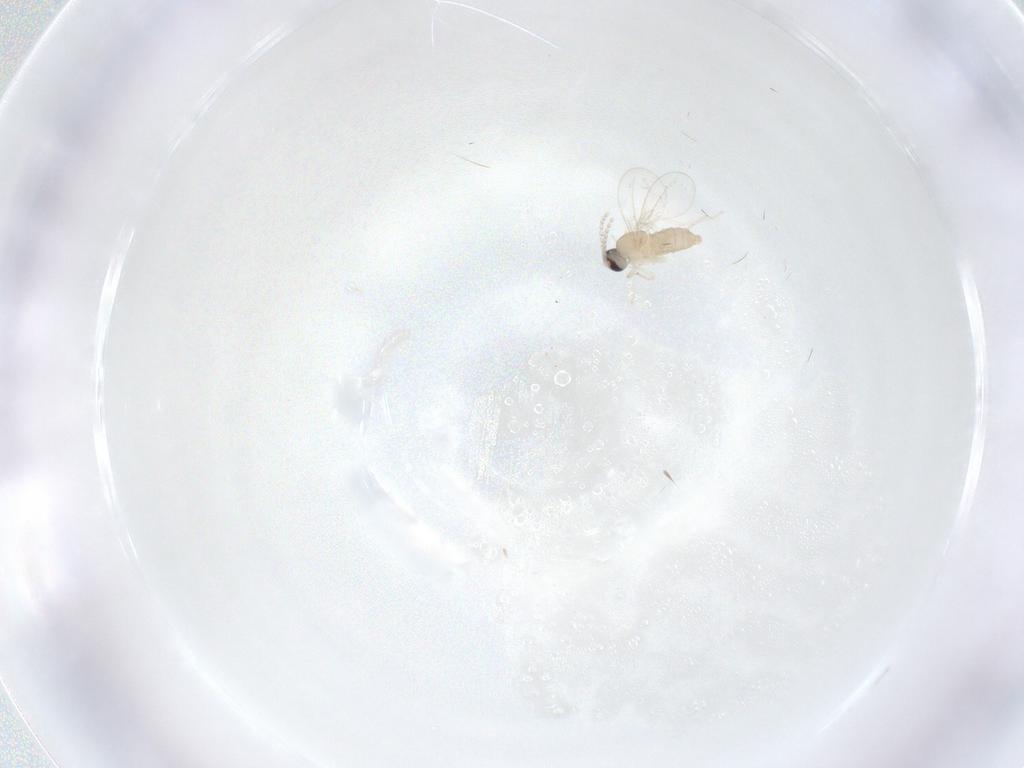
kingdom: Animalia
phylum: Arthropoda
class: Insecta
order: Diptera
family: Cecidomyiidae
